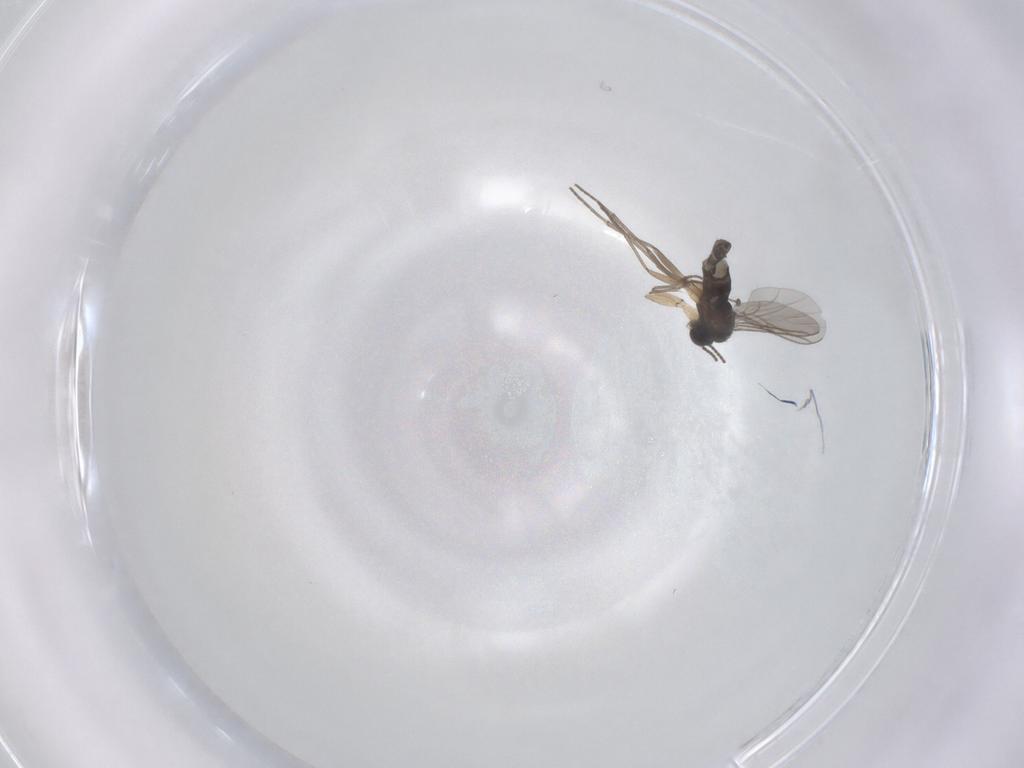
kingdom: Animalia
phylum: Arthropoda
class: Insecta
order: Diptera
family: Sciaridae
